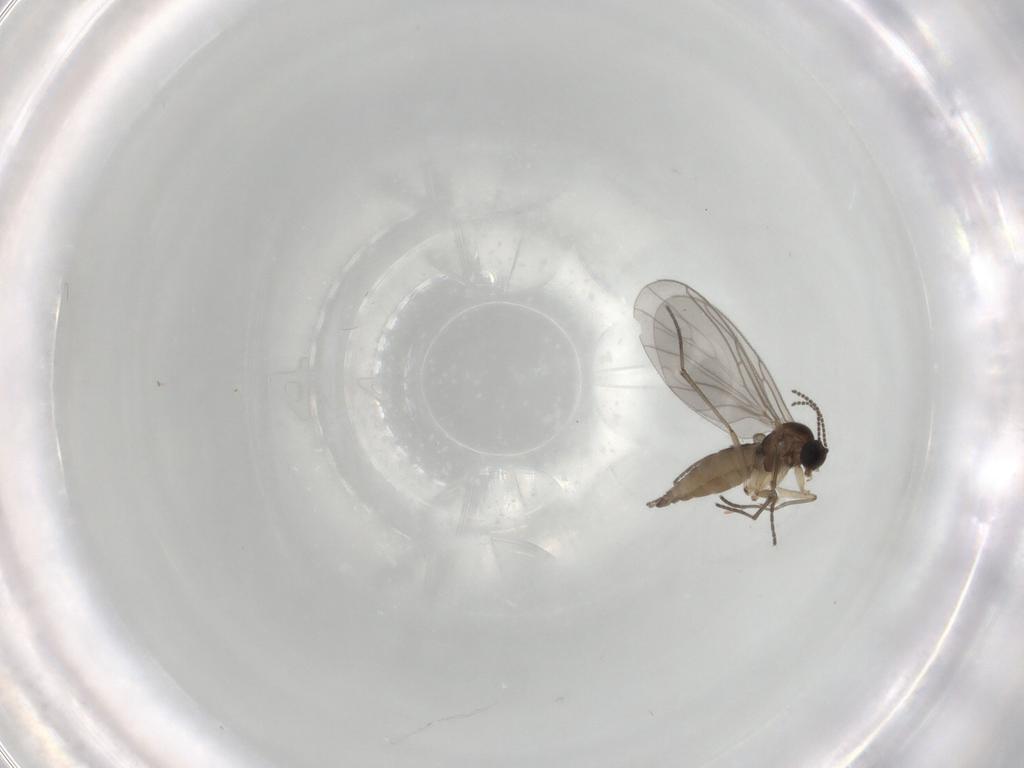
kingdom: Animalia
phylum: Arthropoda
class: Insecta
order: Diptera
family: Sciaridae
